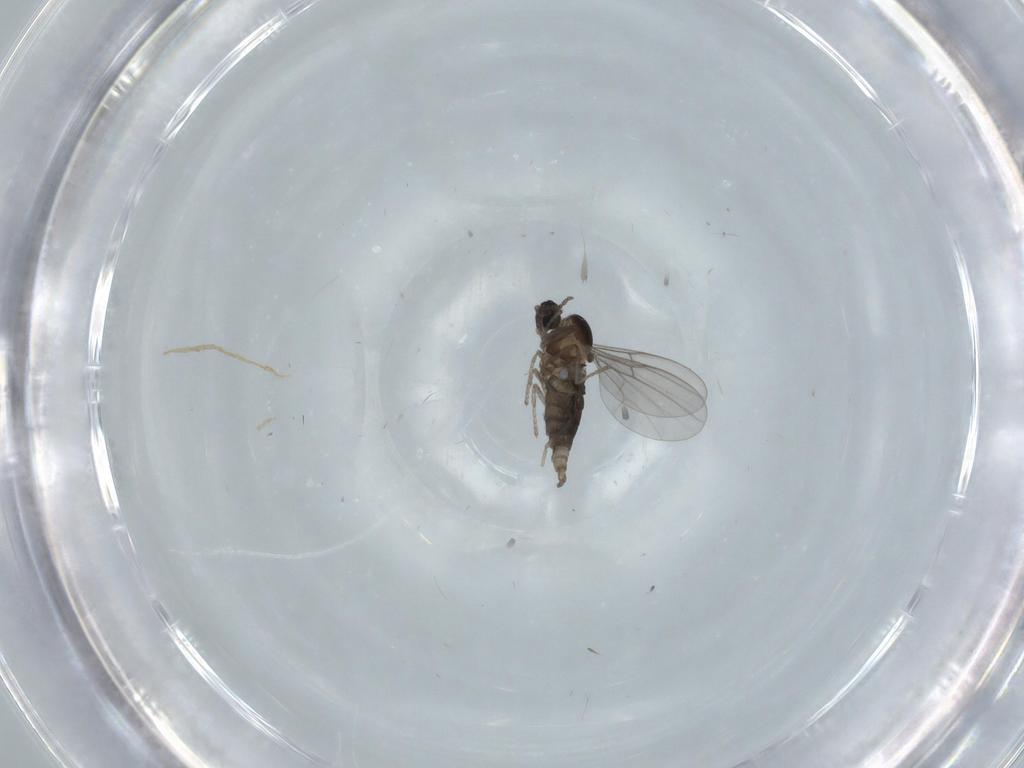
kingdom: Animalia
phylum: Arthropoda
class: Insecta
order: Diptera
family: Cecidomyiidae
